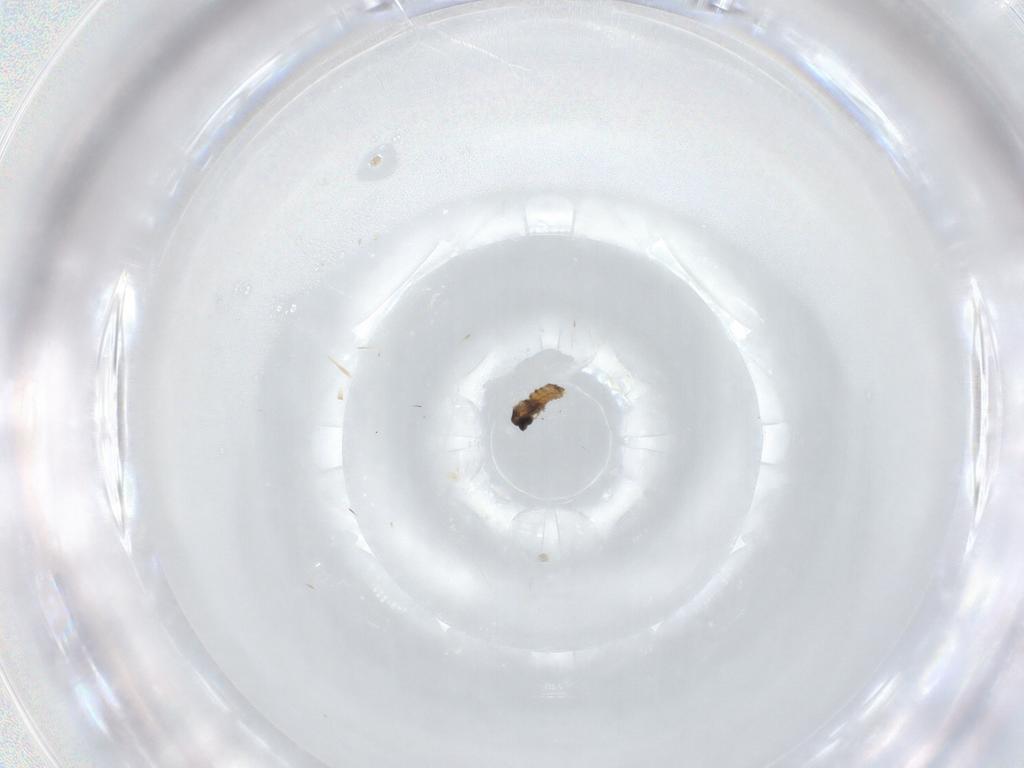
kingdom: Animalia
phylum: Arthropoda
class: Insecta
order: Diptera
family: Cecidomyiidae
